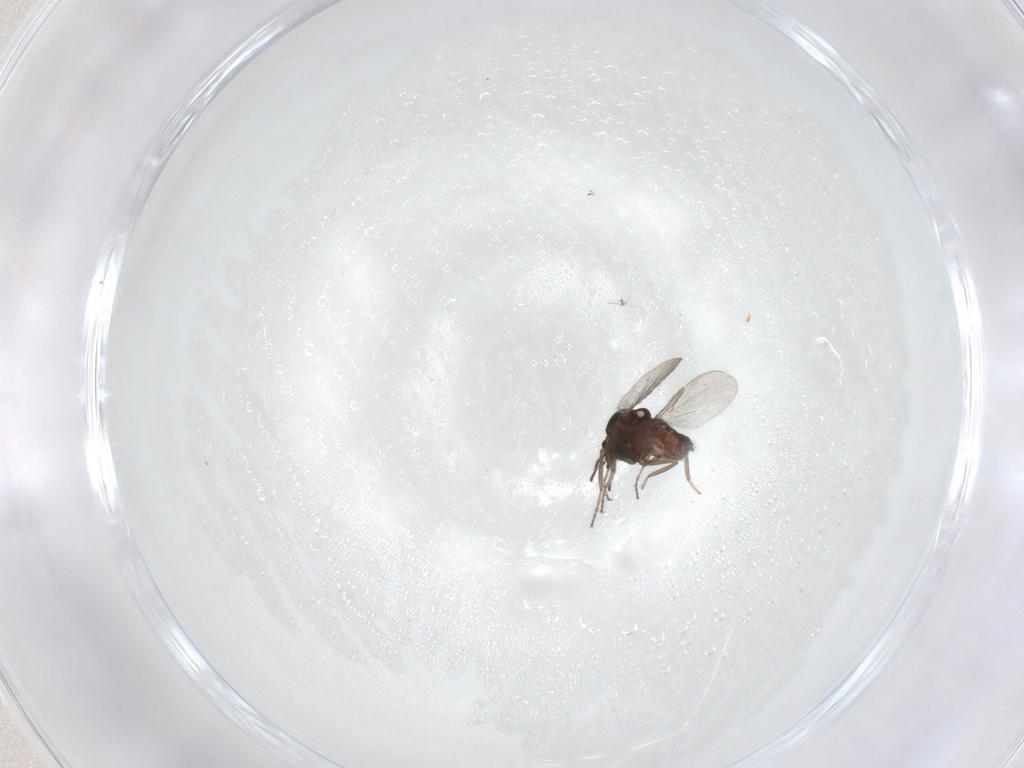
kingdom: Animalia
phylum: Arthropoda
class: Insecta
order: Diptera
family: Ceratopogonidae
